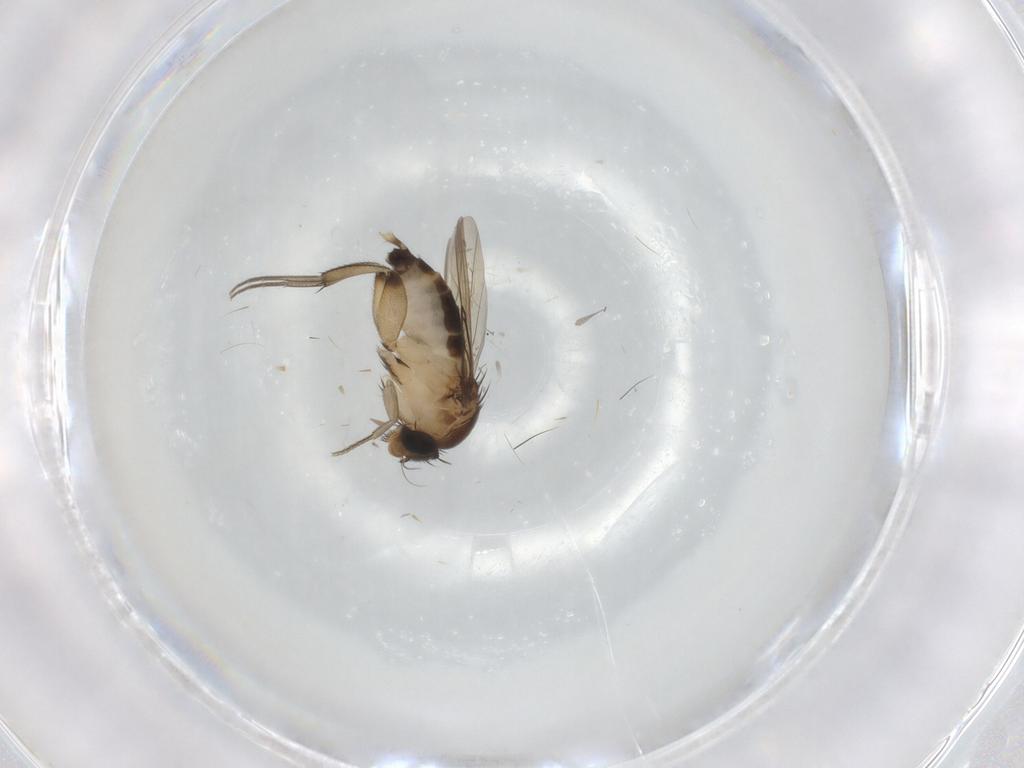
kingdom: Animalia
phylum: Arthropoda
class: Insecta
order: Diptera
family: Phoridae
